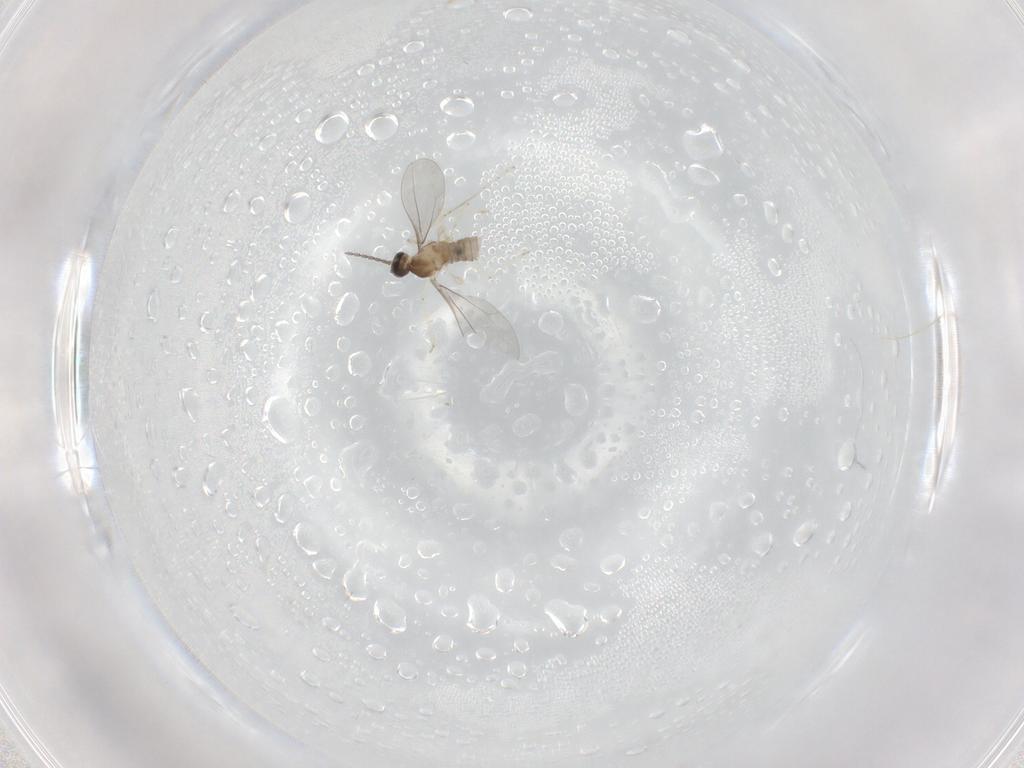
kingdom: Animalia
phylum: Arthropoda
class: Insecta
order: Diptera
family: Cecidomyiidae
